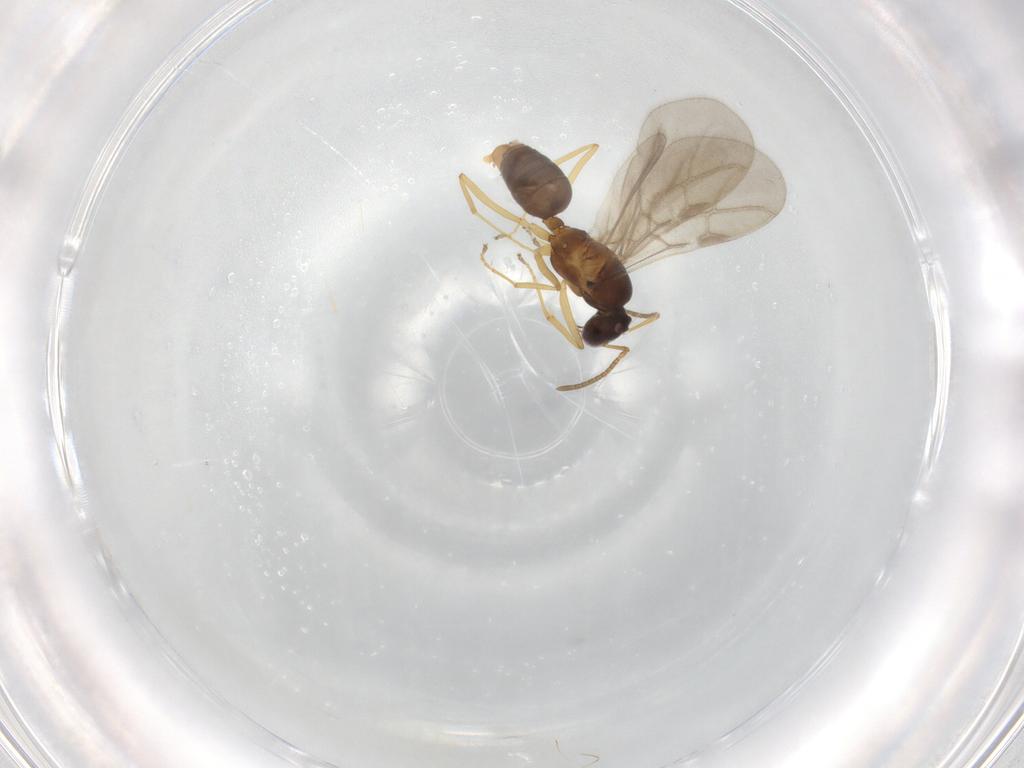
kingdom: Animalia
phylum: Arthropoda
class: Insecta
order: Hymenoptera
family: Formicidae
